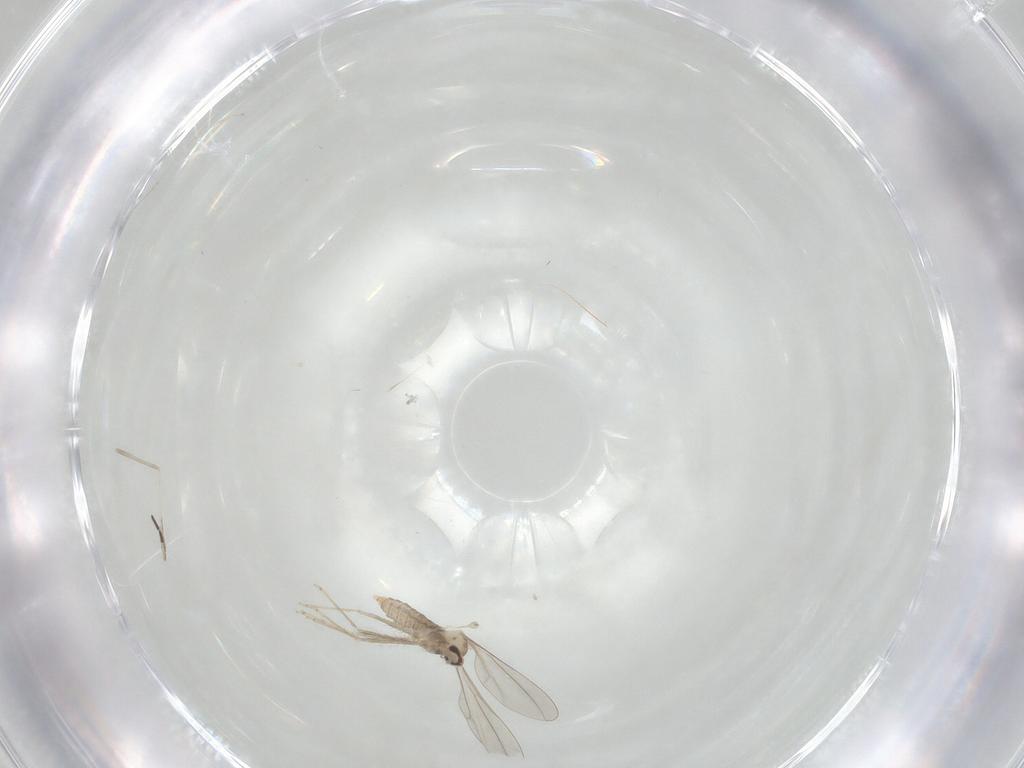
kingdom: Animalia
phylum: Arthropoda
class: Insecta
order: Diptera
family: Chironomidae
